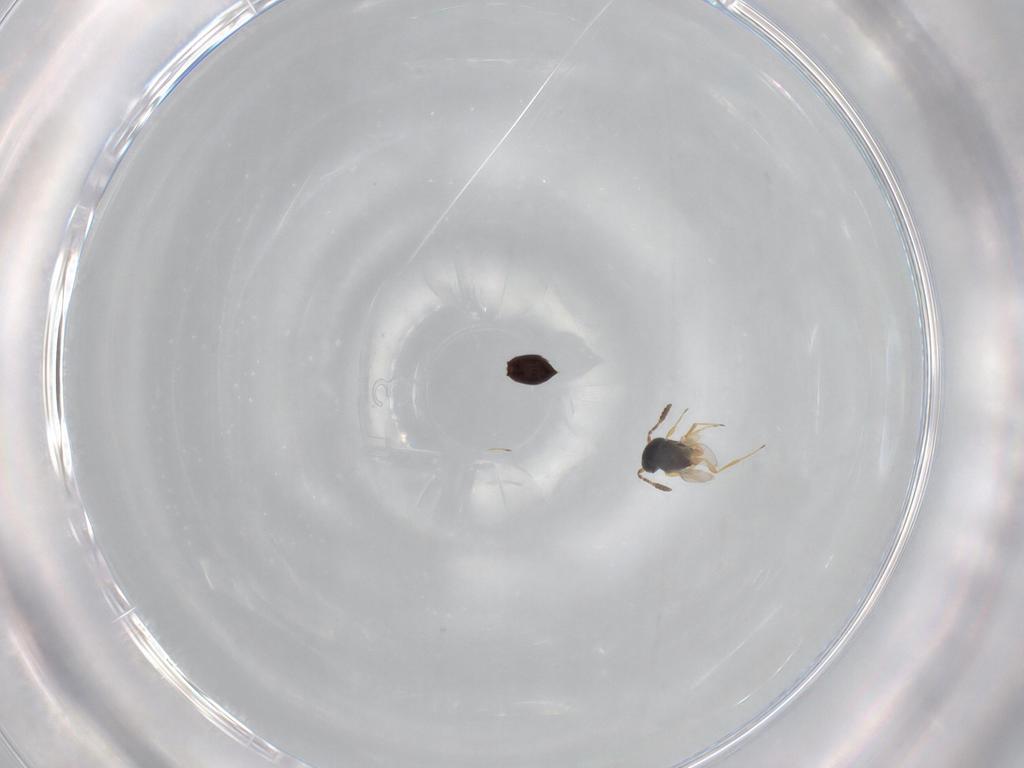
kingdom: Animalia
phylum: Arthropoda
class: Insecta
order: Hymenoptera
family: Scelionidae
